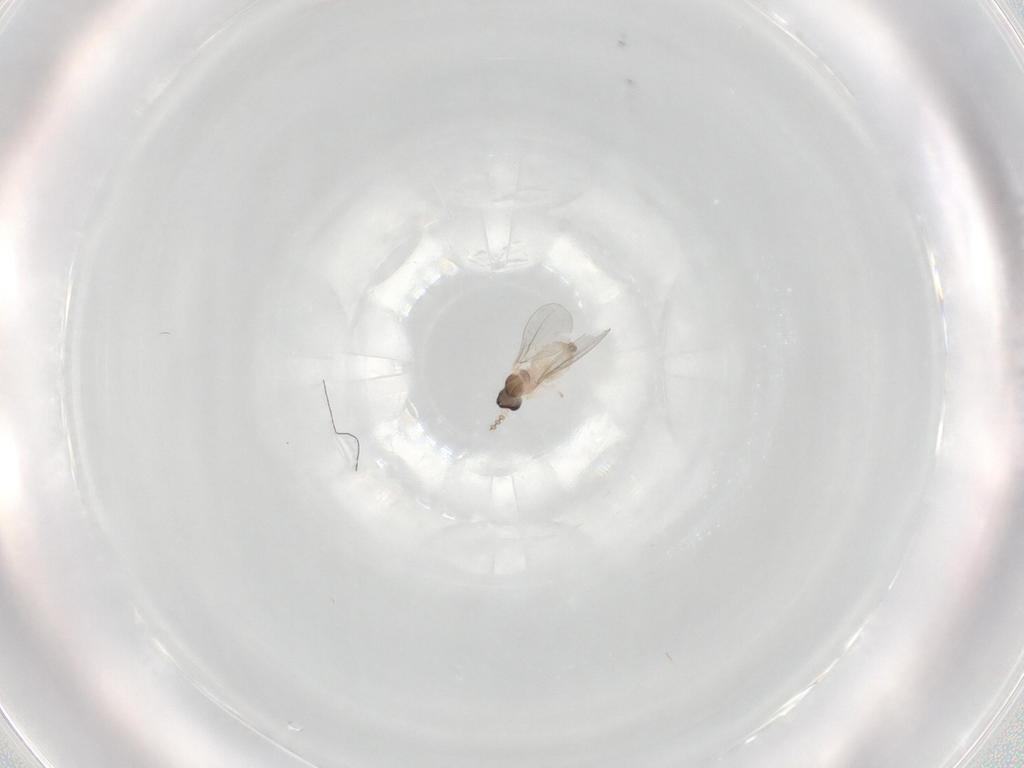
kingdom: Animalia
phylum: Arthropoda
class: Insecta
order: Diptera
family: Cecidomyiidae
